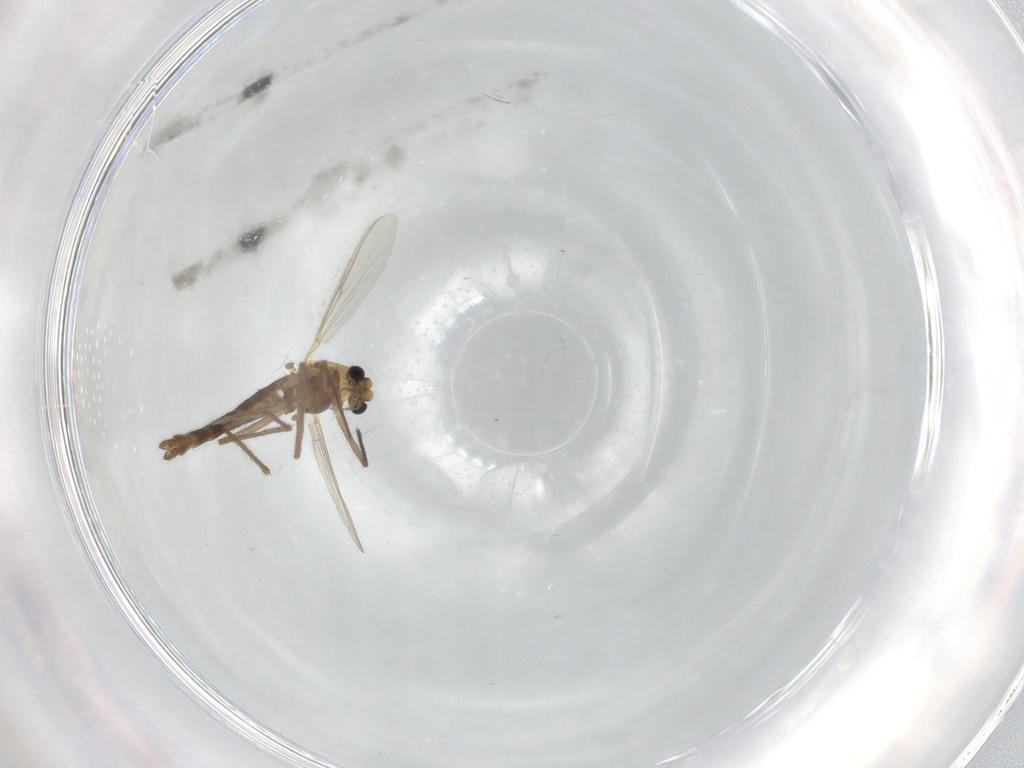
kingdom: Animalia
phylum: Arthropoda
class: Insecta
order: Diptera
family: Chironomidae
